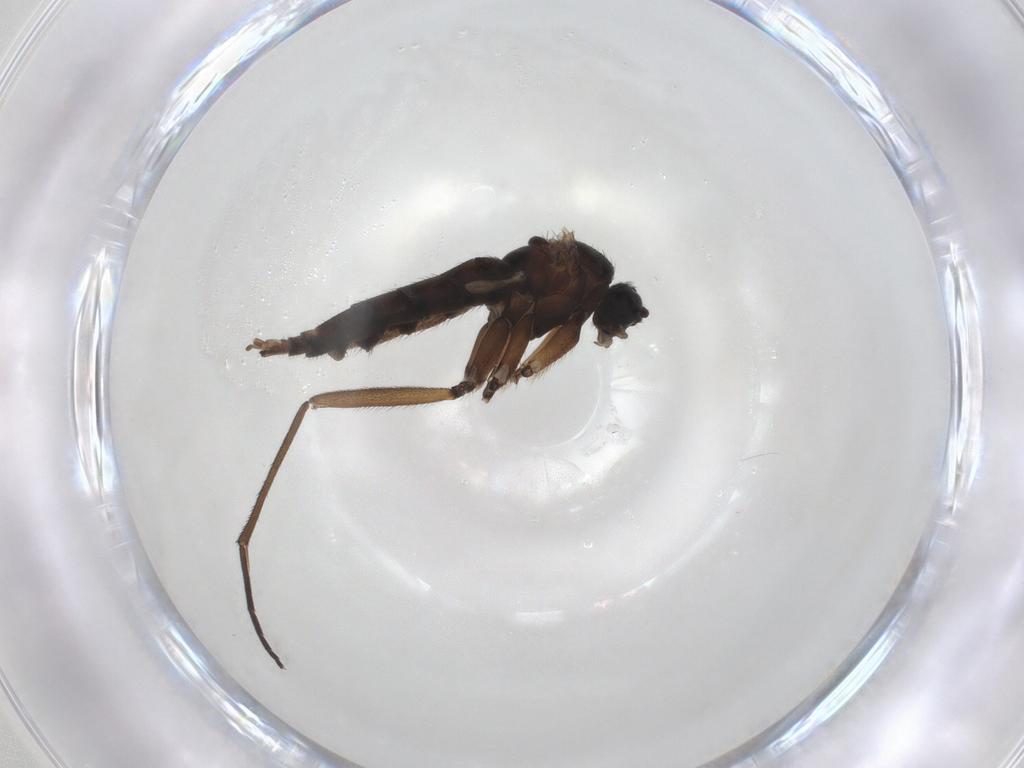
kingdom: Animalia
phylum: Arthropoda
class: Insecta
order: Diptera
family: Sciaridae
